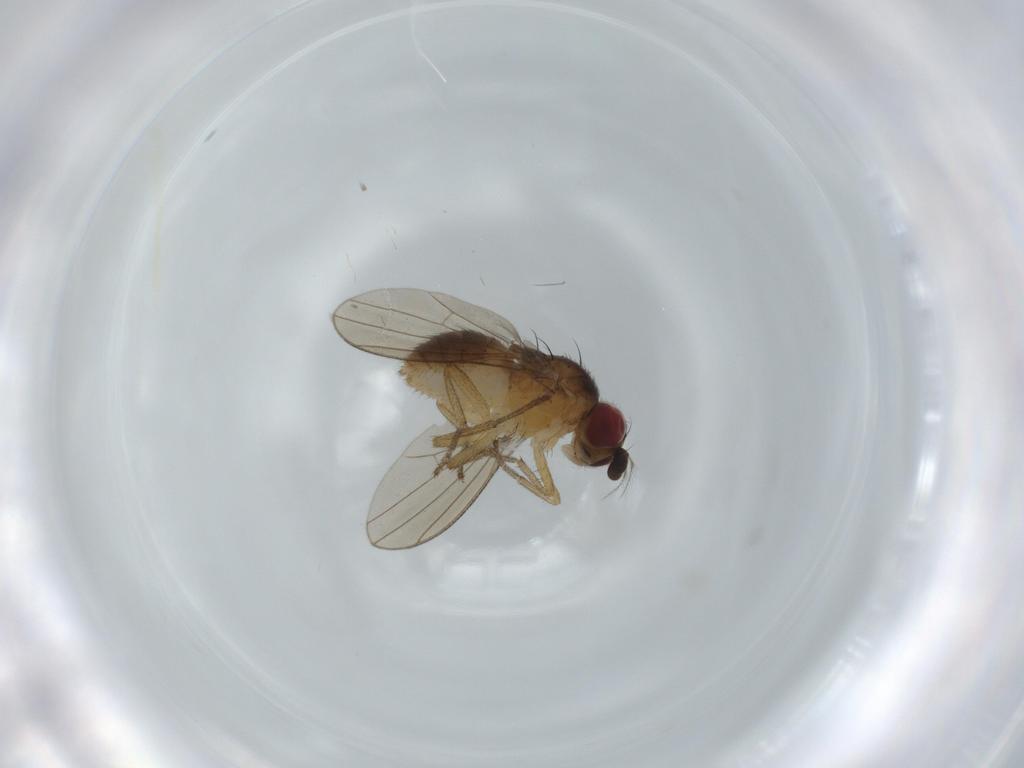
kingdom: Animalia
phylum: Arthropoda
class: Insecta
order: Diptera
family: Lauxaniidae
